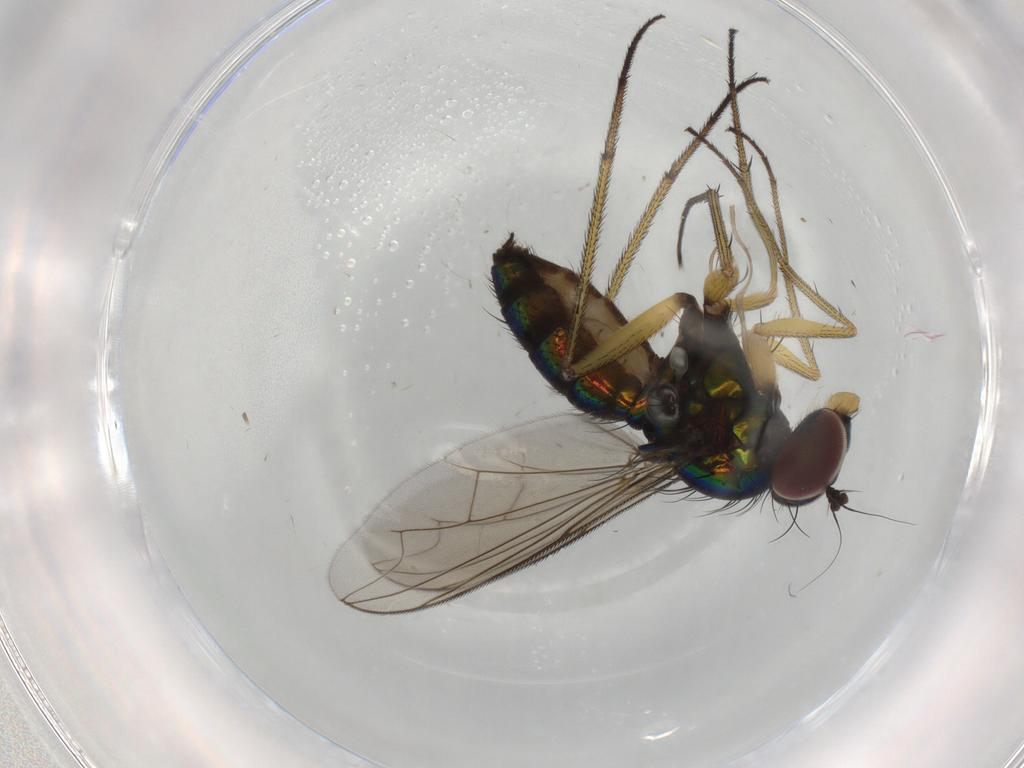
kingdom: Animalia
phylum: Arthropoda
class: Insecta
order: Diptera
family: Dolichopodidae
